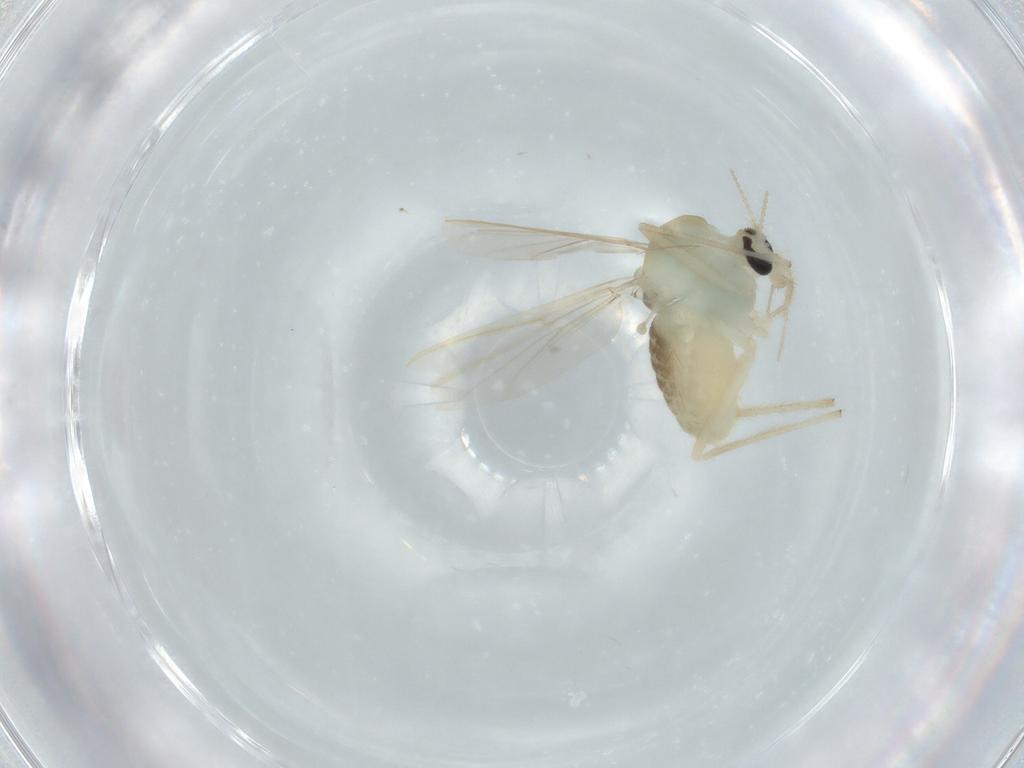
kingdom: Animalia
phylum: Arthropoda
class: Insecta
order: Diptera
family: Chironomidae
